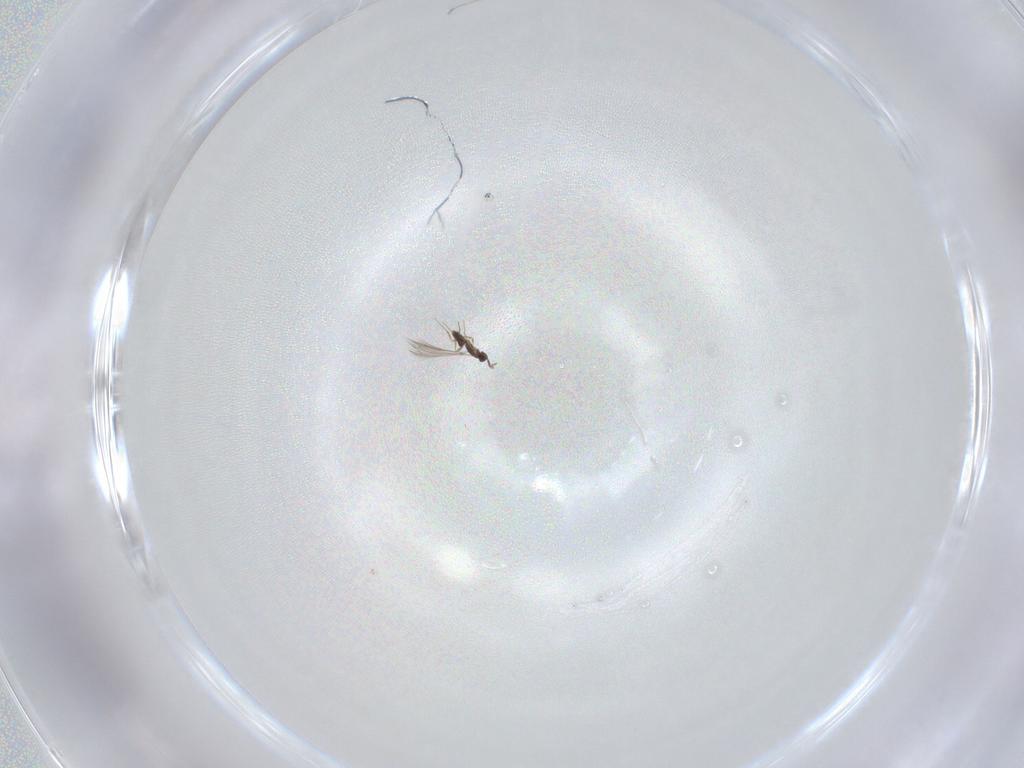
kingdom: Animalia
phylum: Arthropoda
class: Insecta
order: Hymenoptera
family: Mymaridae
